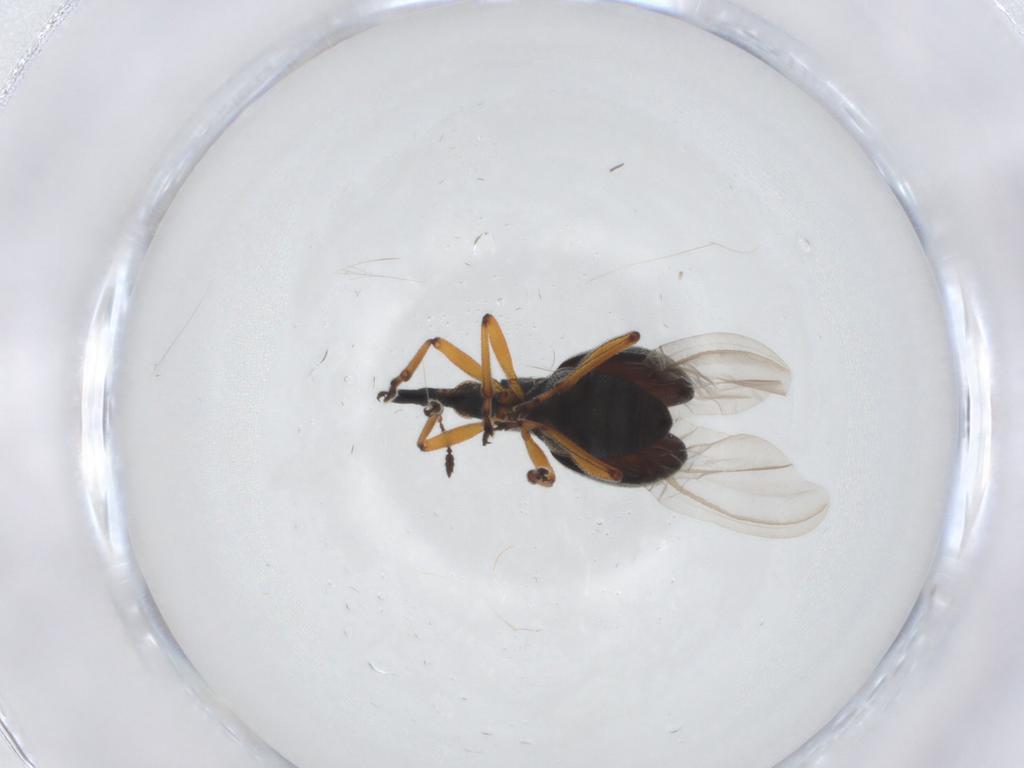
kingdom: Animalia
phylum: Arthropoda
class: Insecta
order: Coleoptera
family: Brentidae
